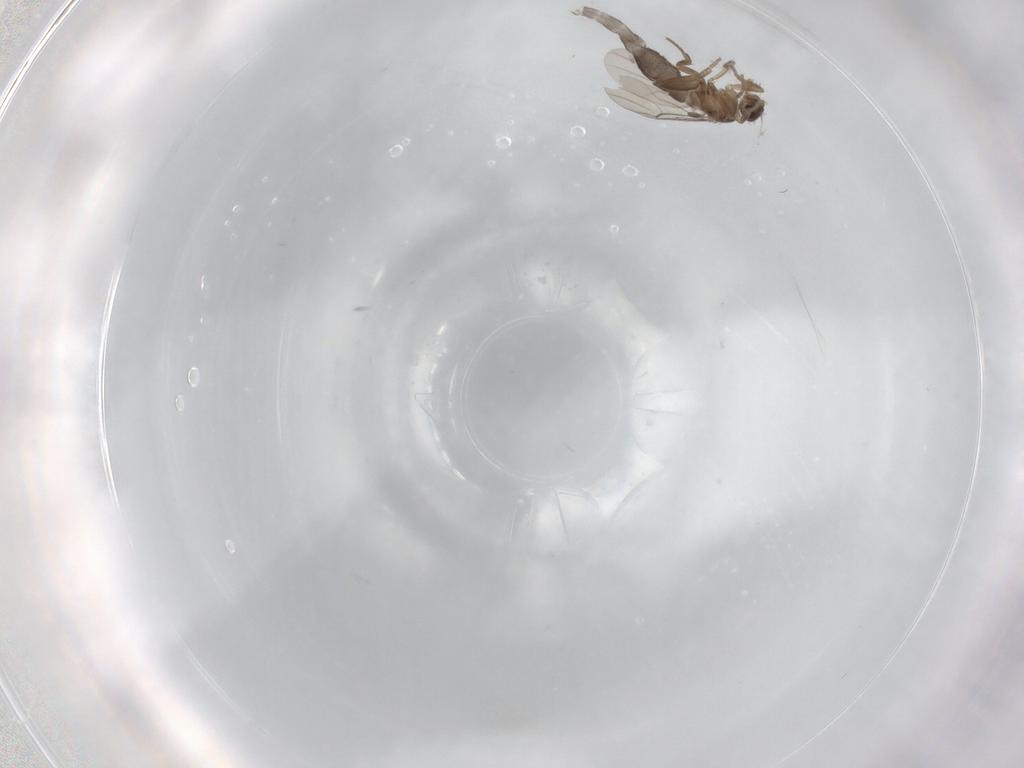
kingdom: Animalia
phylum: Arthropoda
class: Insecta
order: Diptera
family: Phoridae
